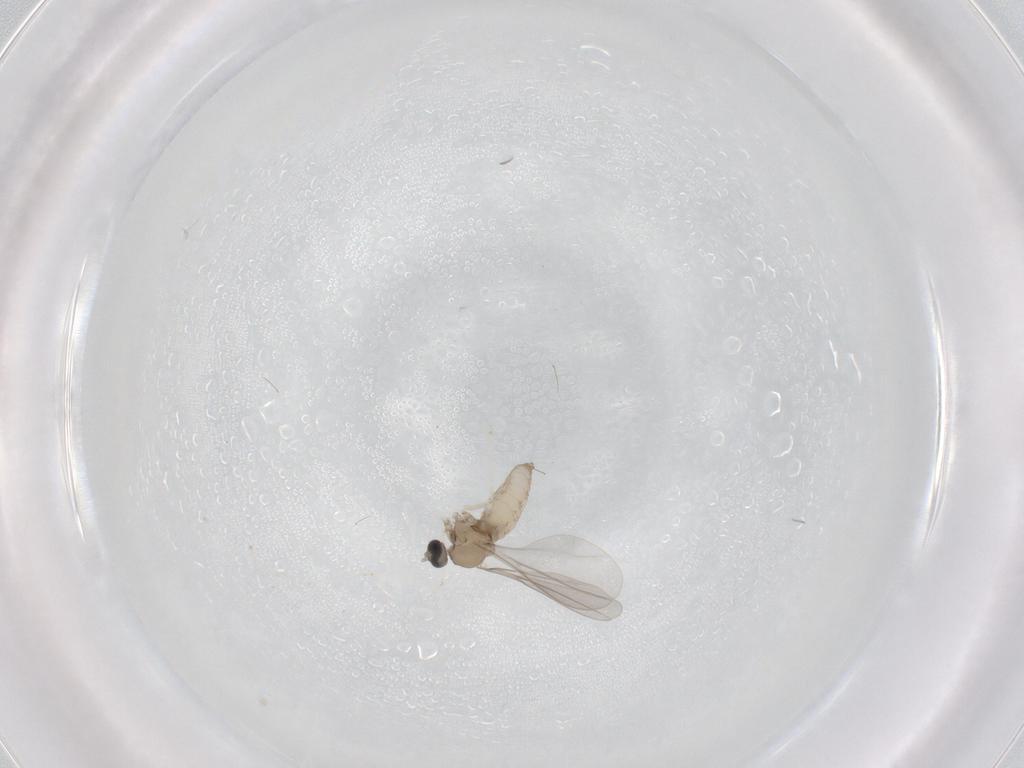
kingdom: Animalia
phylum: Arthropoda
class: Insecta
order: Diptera
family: Cecidomyiidae
